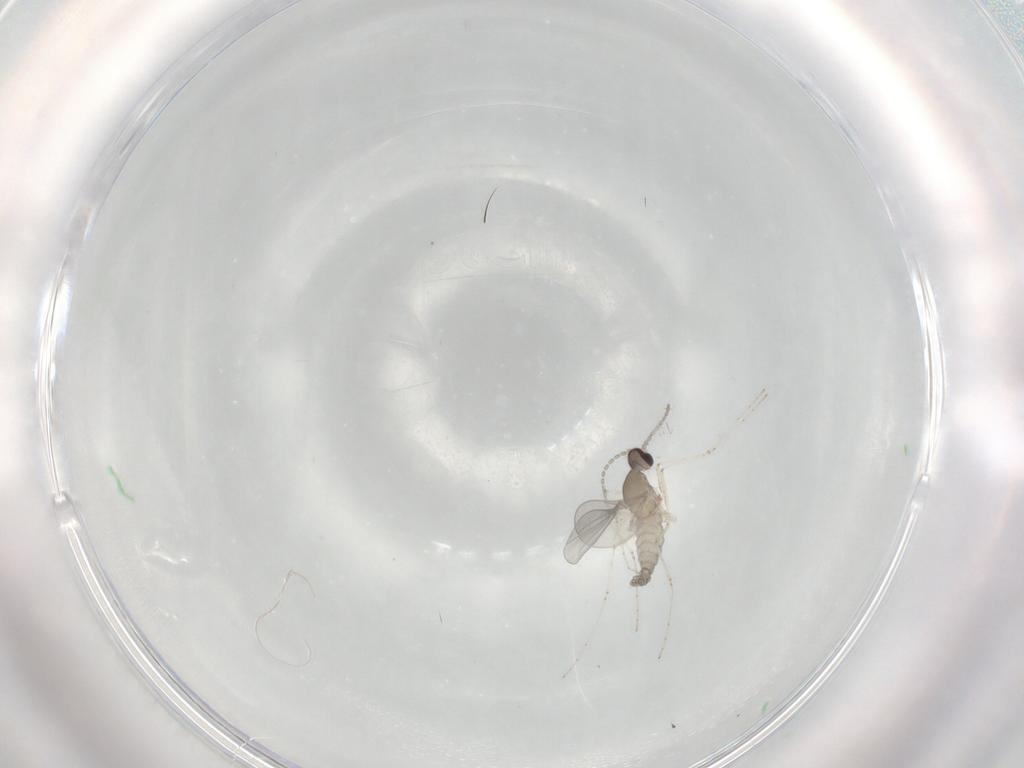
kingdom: Animalia
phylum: Arthropoda
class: Insecta
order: Diptera
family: Cecidomyiidae
